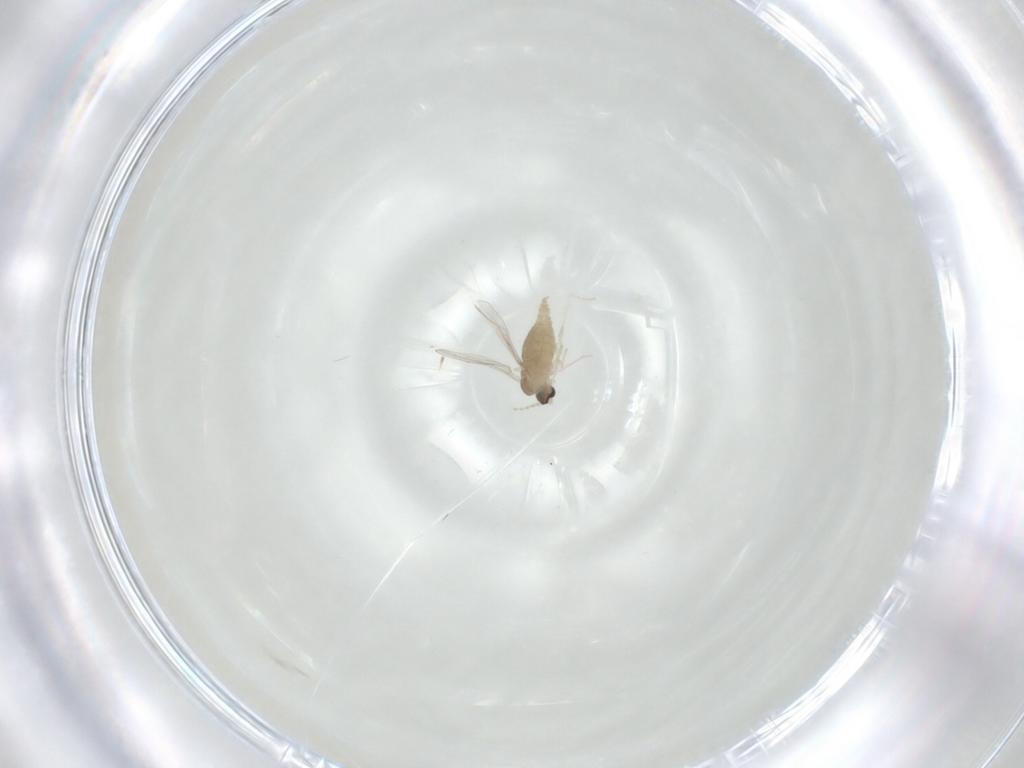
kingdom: Animalia
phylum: Arthropoda
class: Insecta
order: Diptera
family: Cecidomyiidae
